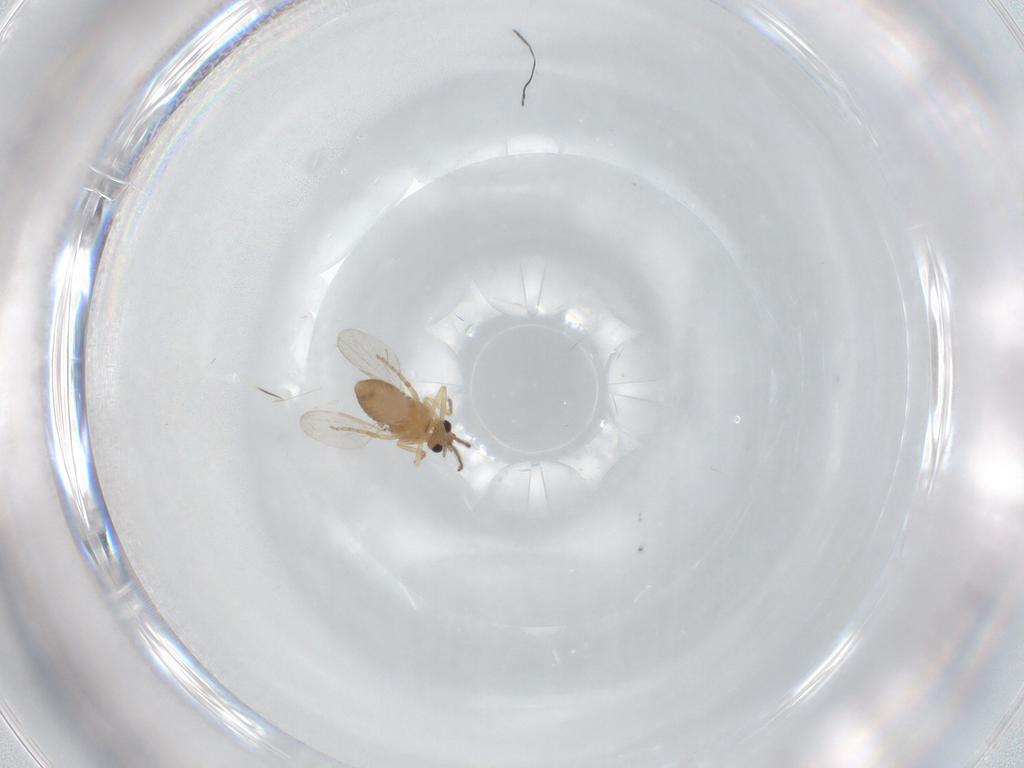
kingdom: Animalia
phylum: Arthropoda
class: Insecta
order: Diptera
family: Ceratopogonidae
